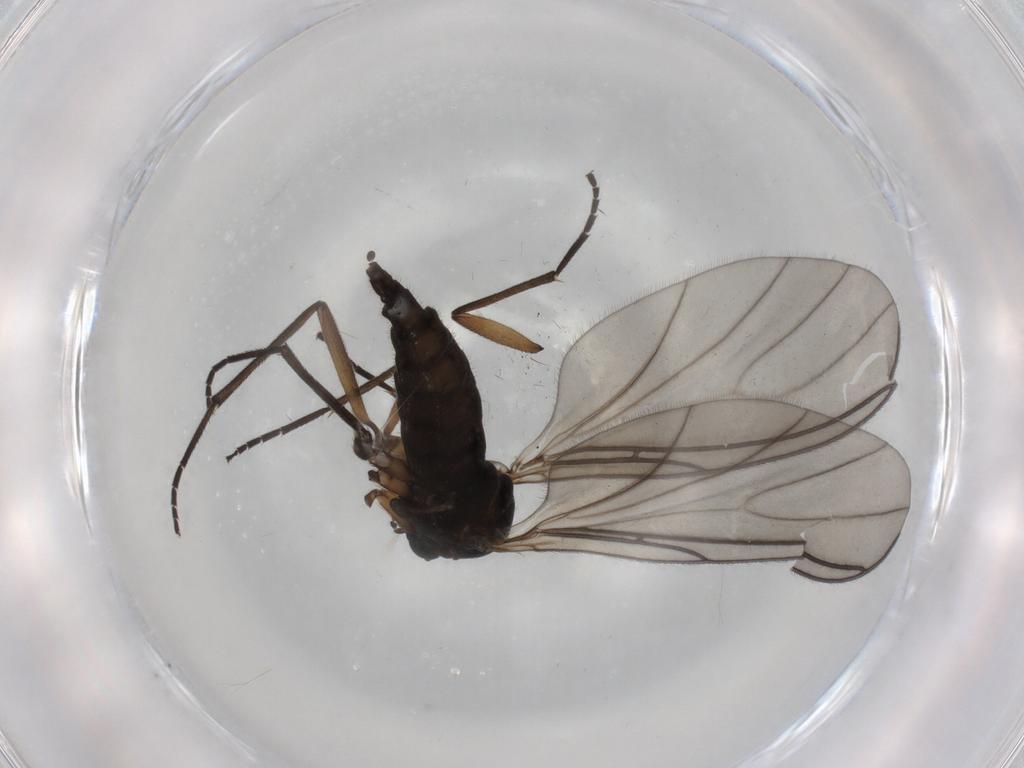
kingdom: Animalia
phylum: Arthropoda
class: Insecta
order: Diptera
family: Sciaridae
